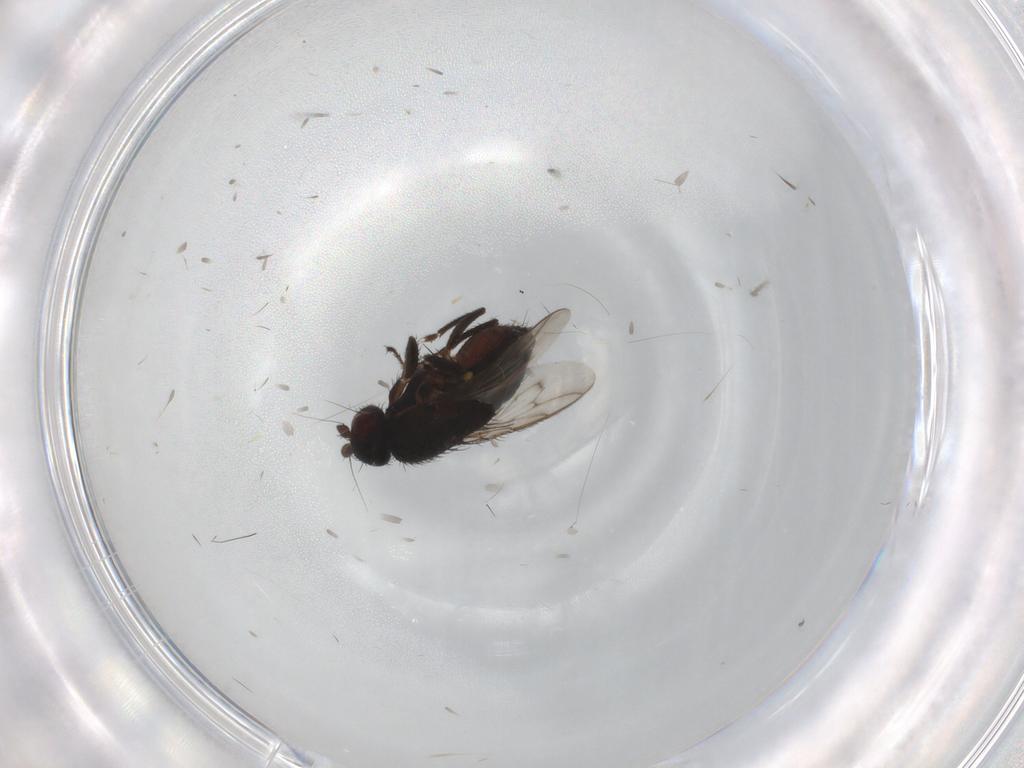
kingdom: Animalia
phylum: Arthropoda
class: Insecta
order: Diptera
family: Sphaeroceridae
